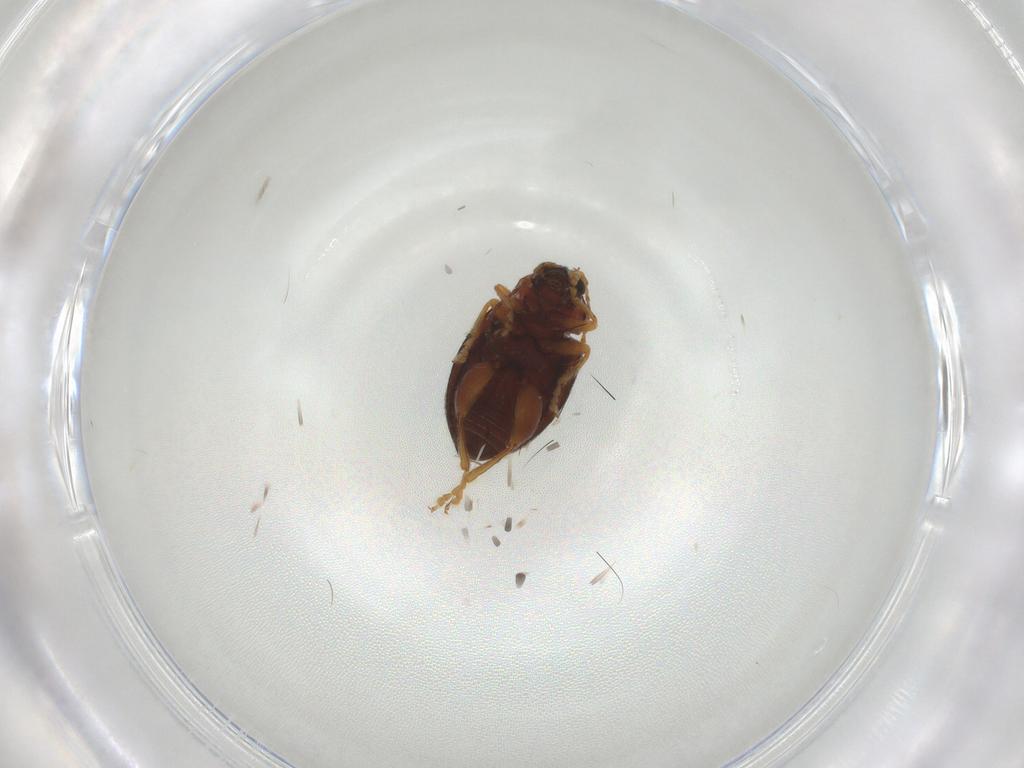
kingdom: Animalia
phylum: Arthropoda
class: Insecta
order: Coleoptera
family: Chrysomelidae
